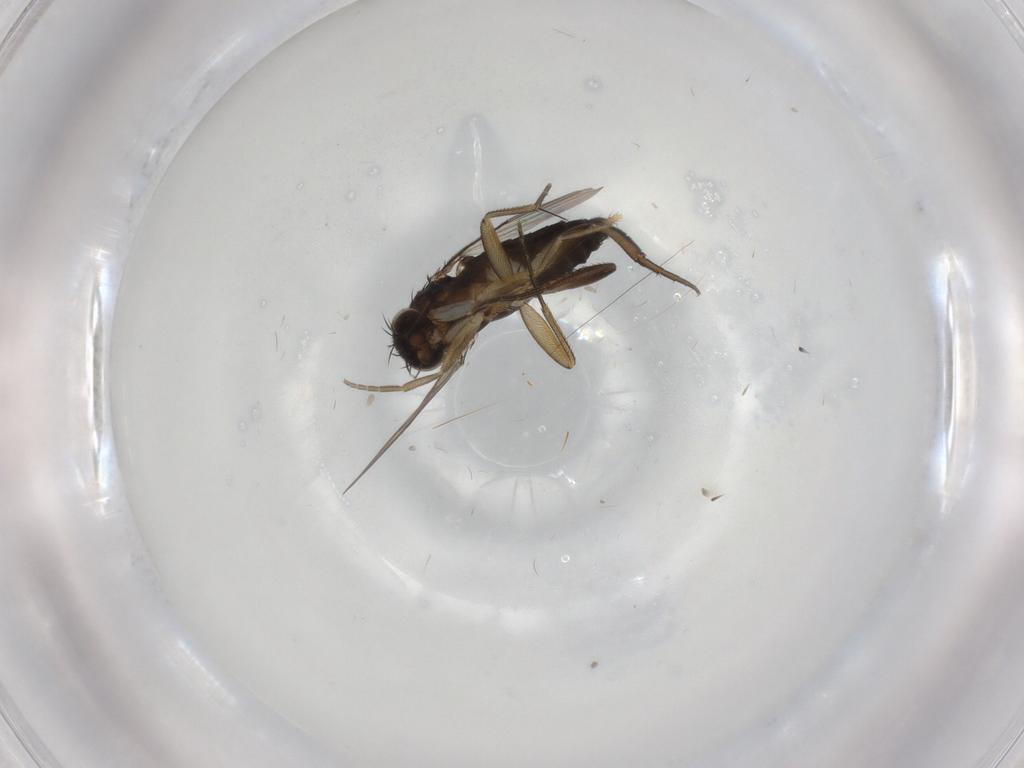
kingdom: Animalia
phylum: Arthropoda
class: Insecta
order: Diptera
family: Phoridae
